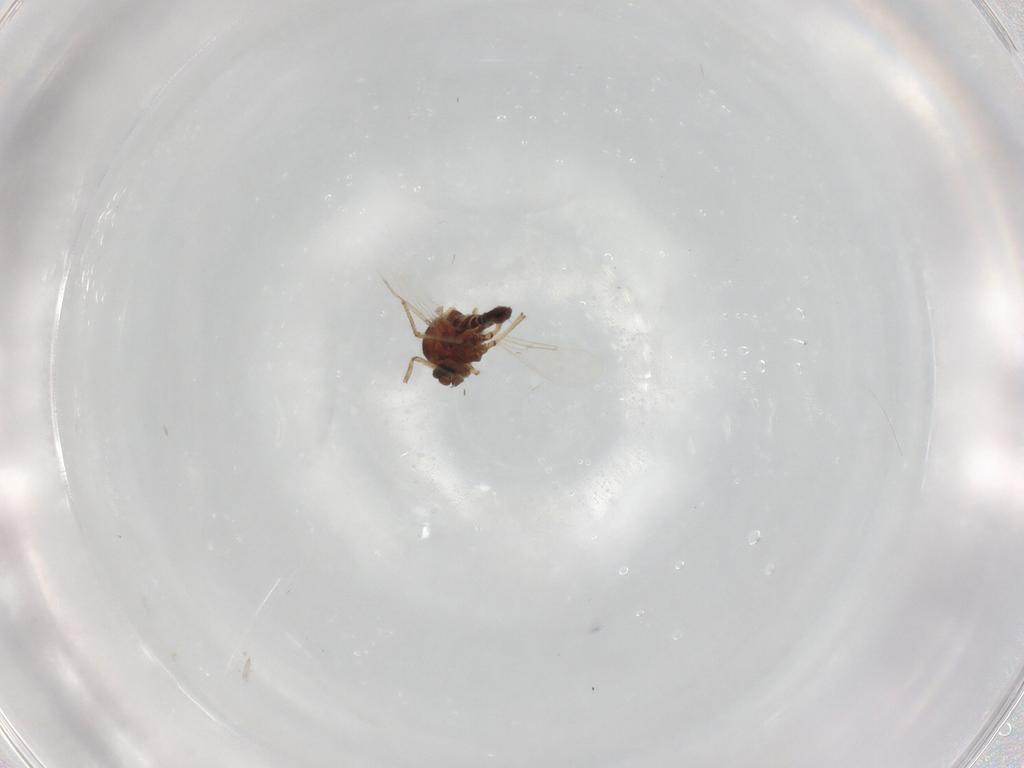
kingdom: Animalia
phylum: Arthropoda
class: Insecta
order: Diptera
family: Ceratopogonidae
